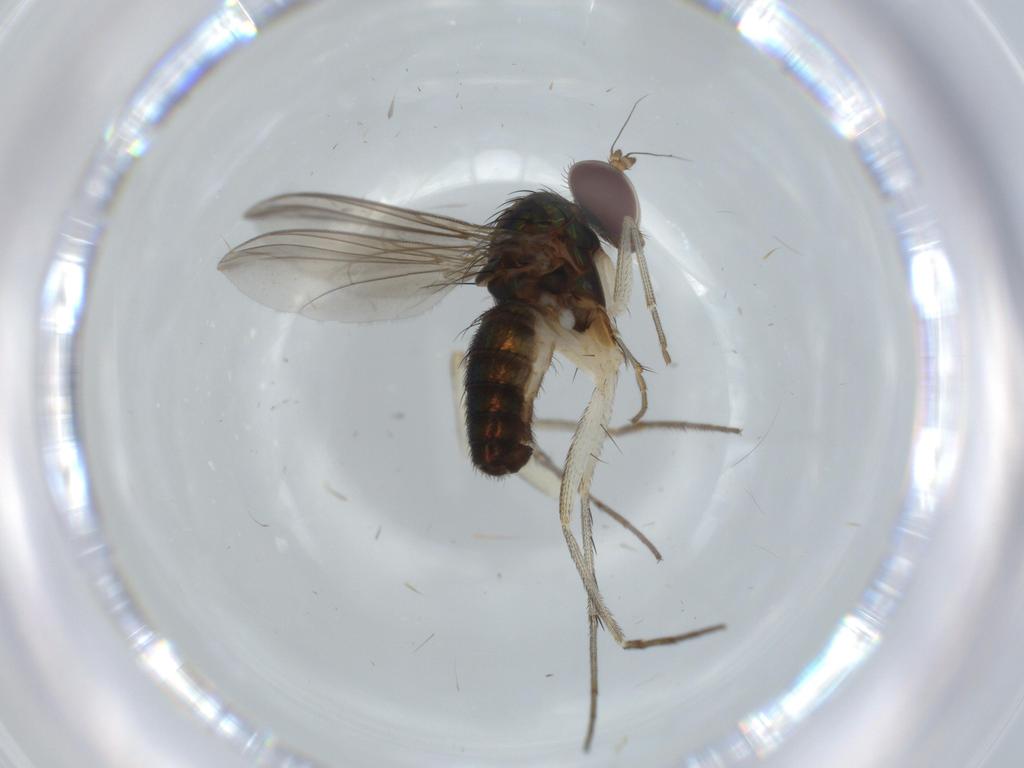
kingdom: Animalia
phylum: Arthropoda
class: Insecta
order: Diptera
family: Dolichopodidae
